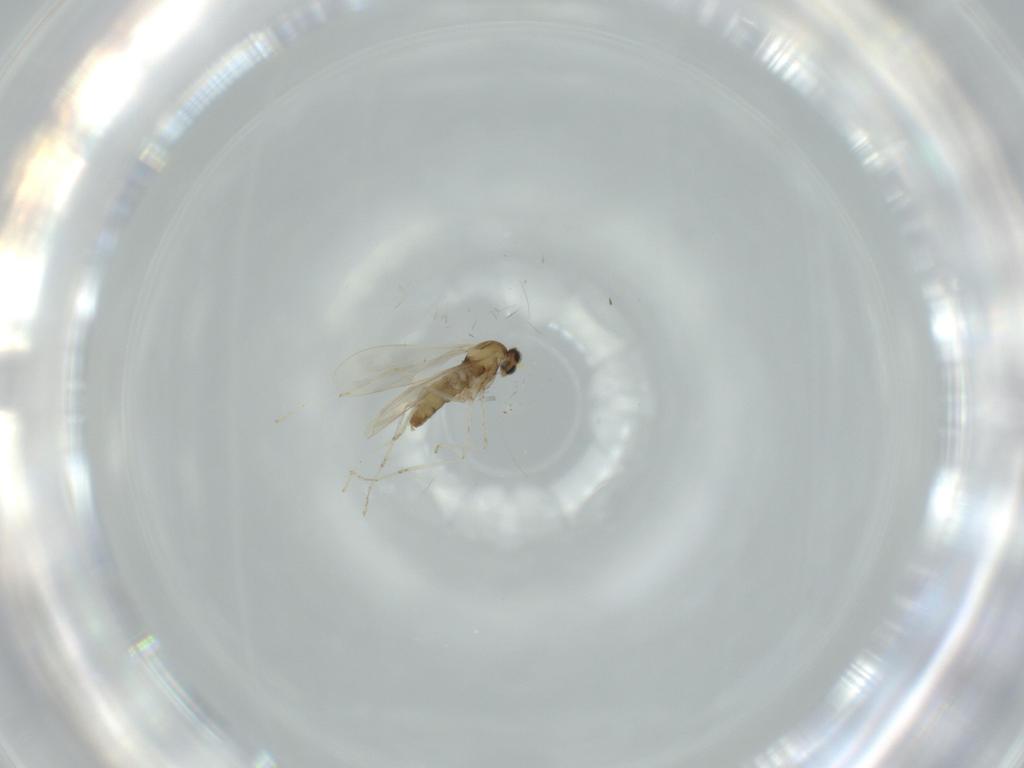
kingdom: Animalia
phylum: Arthropoda
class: Insecta
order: Diptera
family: Cecidomyiidae
